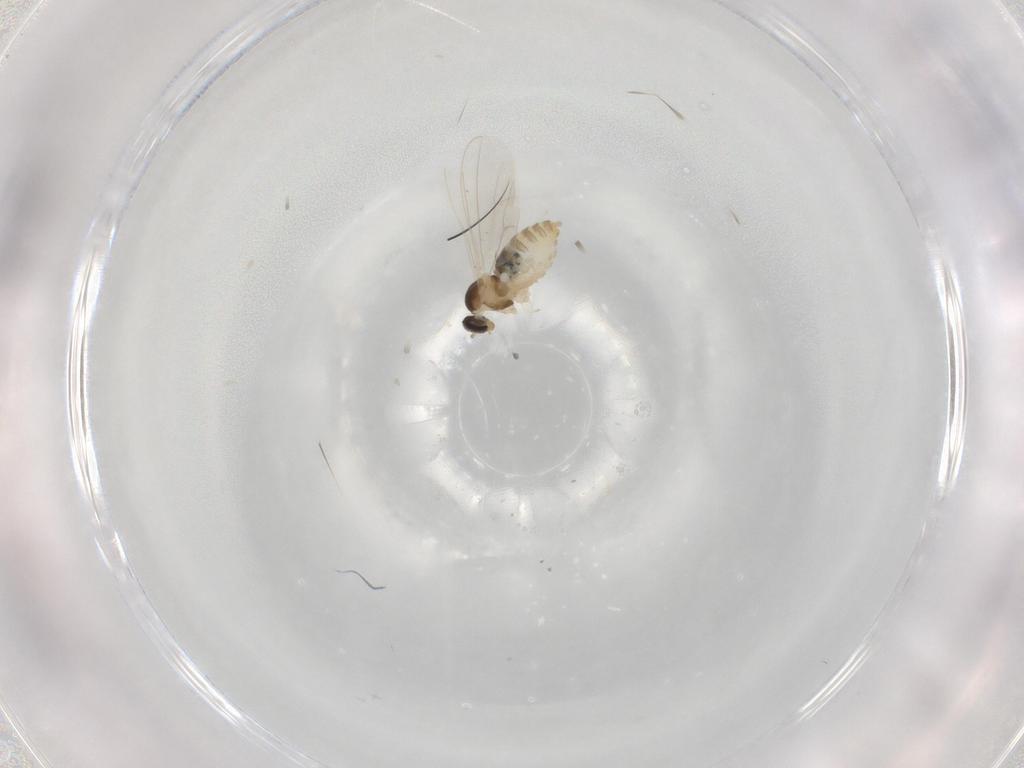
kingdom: Animalia
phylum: Arthropoda
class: Insecta
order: Diptera
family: Cecidomyiidae
